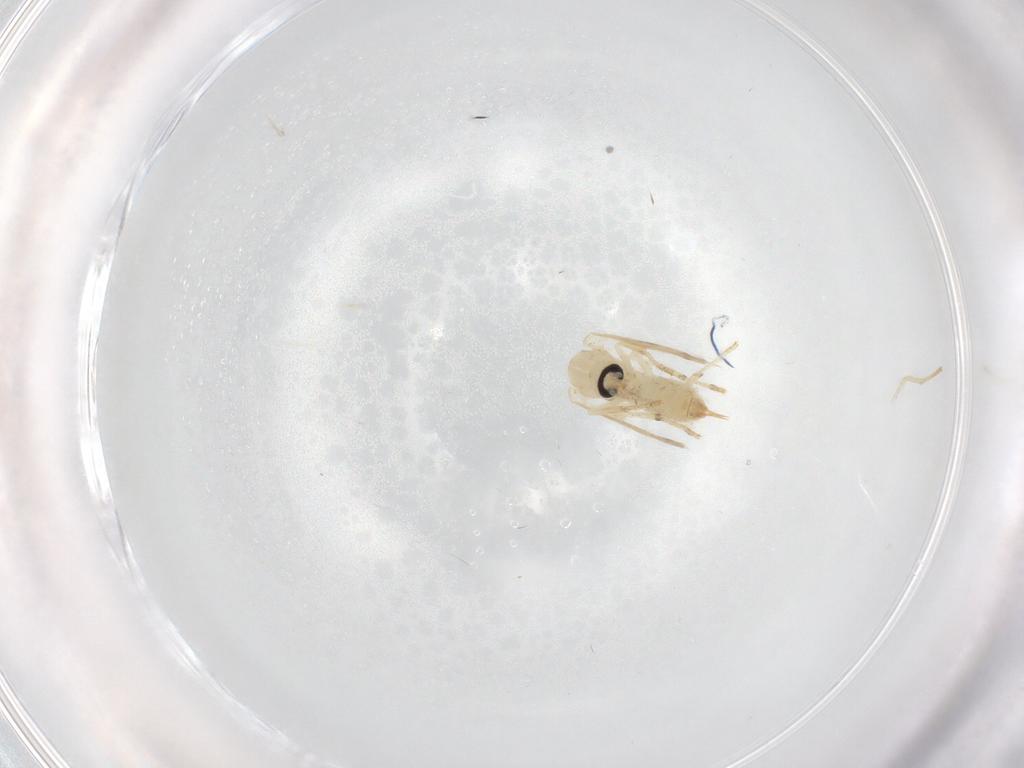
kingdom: Animalia
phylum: Arthropoda
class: Insecta
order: Diptera
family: Psychodidae
